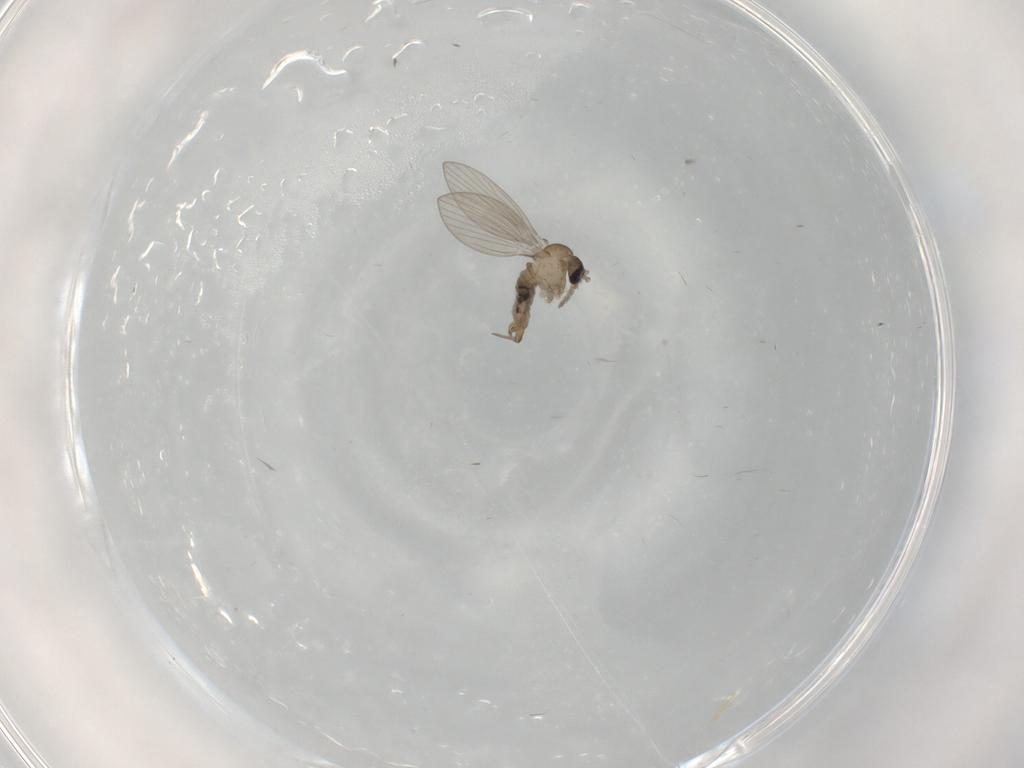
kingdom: Animalia
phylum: Arthropoda
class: Insecta
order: Diptera
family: Psychodidae
